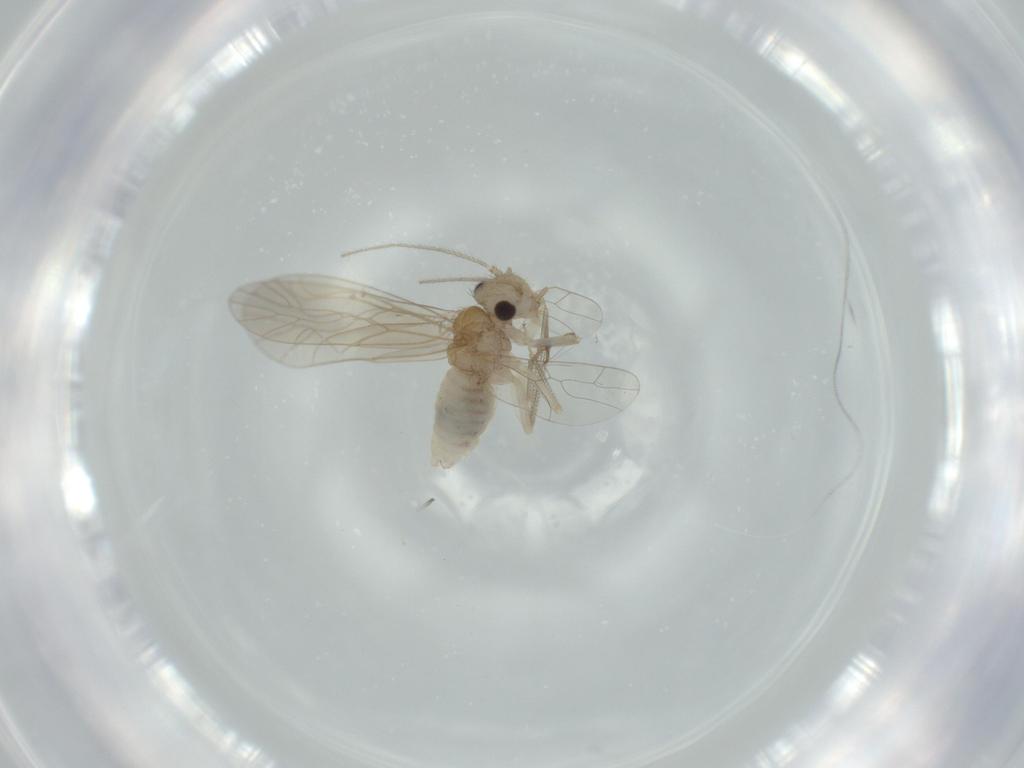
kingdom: Animalia
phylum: Arthropoda
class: Insecta
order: Psocodea
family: Caeciliusidae
